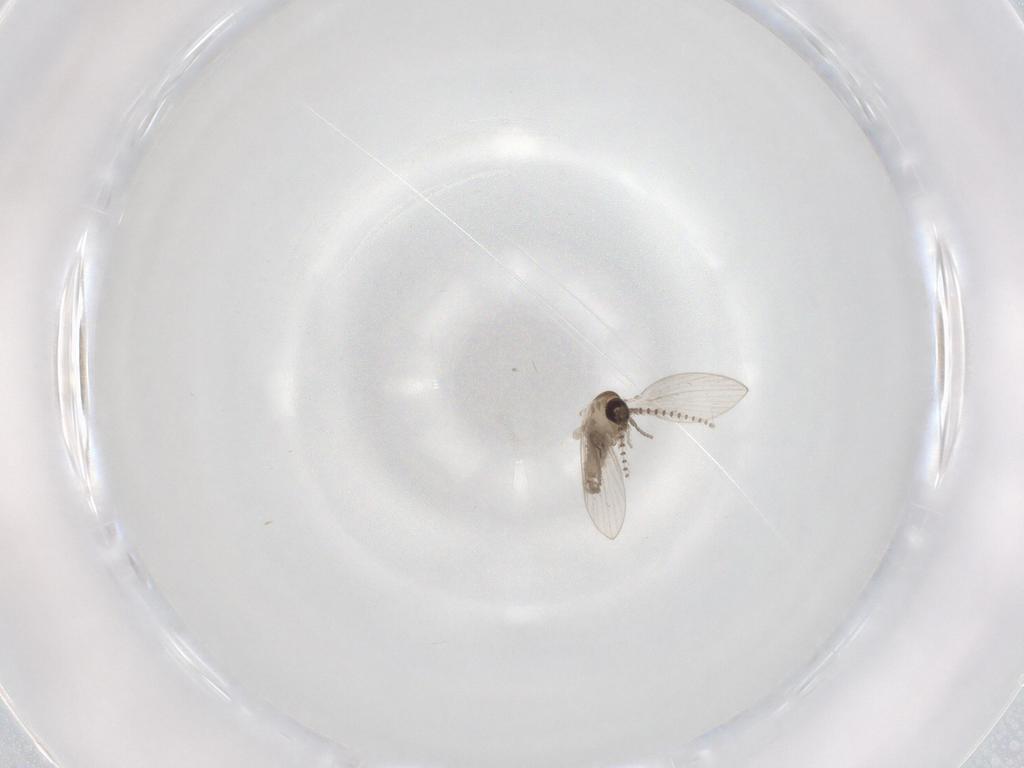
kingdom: Animalia
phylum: Arthropoda
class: Insecta
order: Diptera
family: Psychodidae
